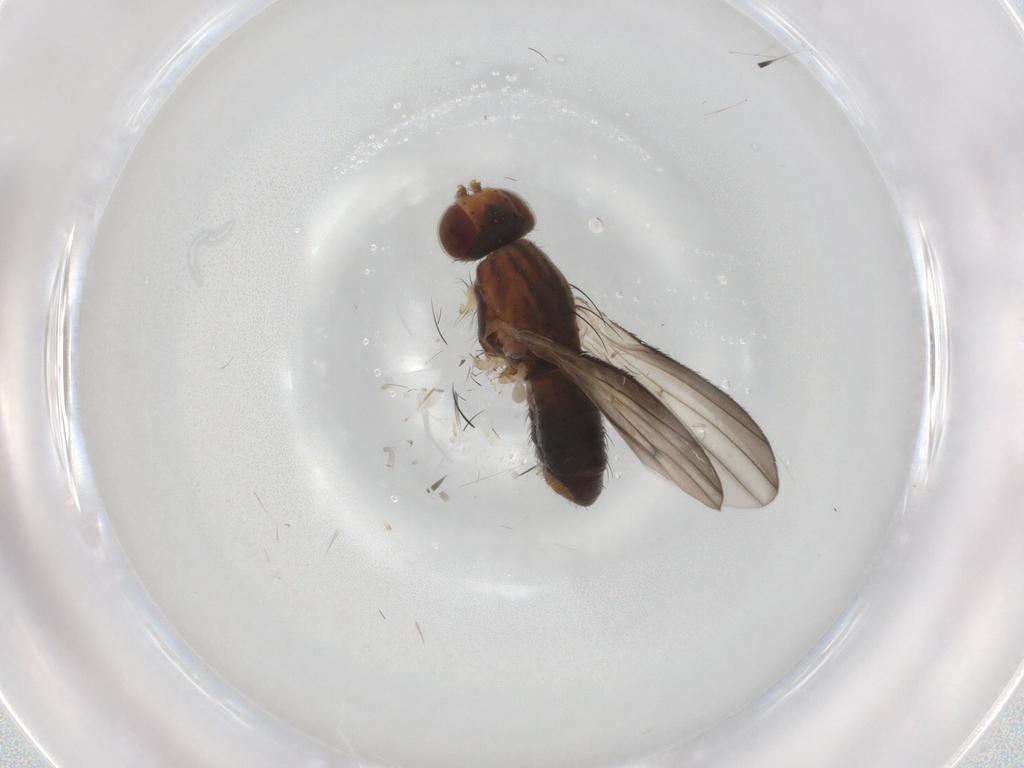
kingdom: Animalia
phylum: Arthropoda
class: Insecta
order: Diptera
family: Heleomyzidae
